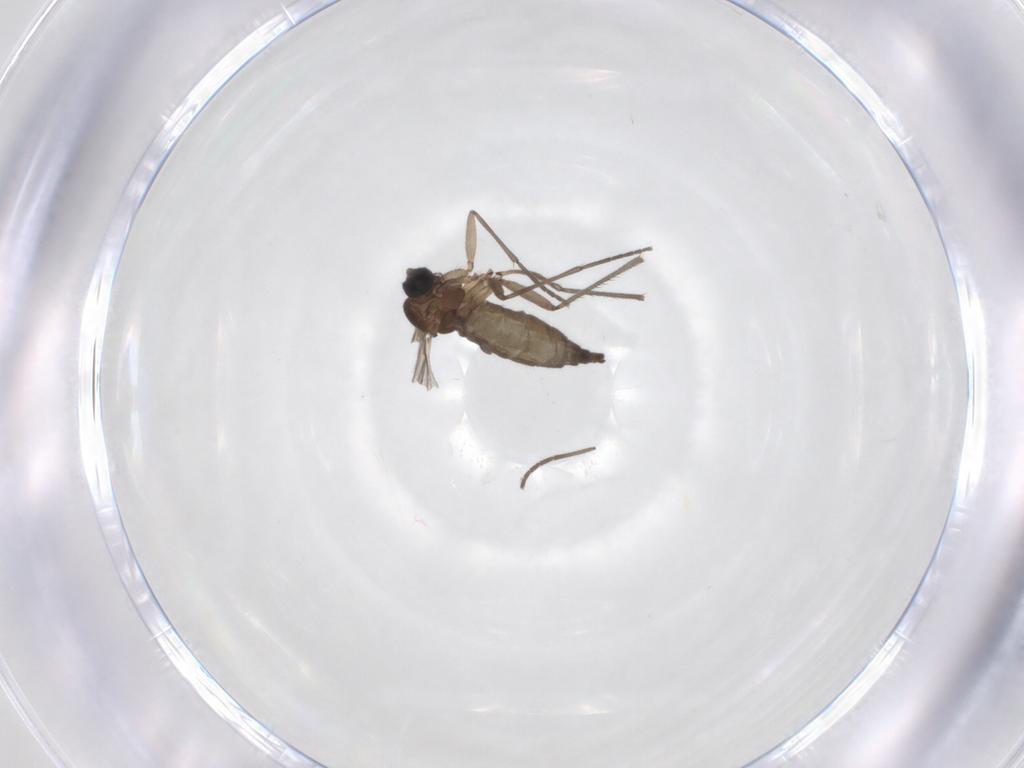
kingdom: Animalia
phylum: Arthropoda
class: Insecta
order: Diptera
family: Sciaridae
